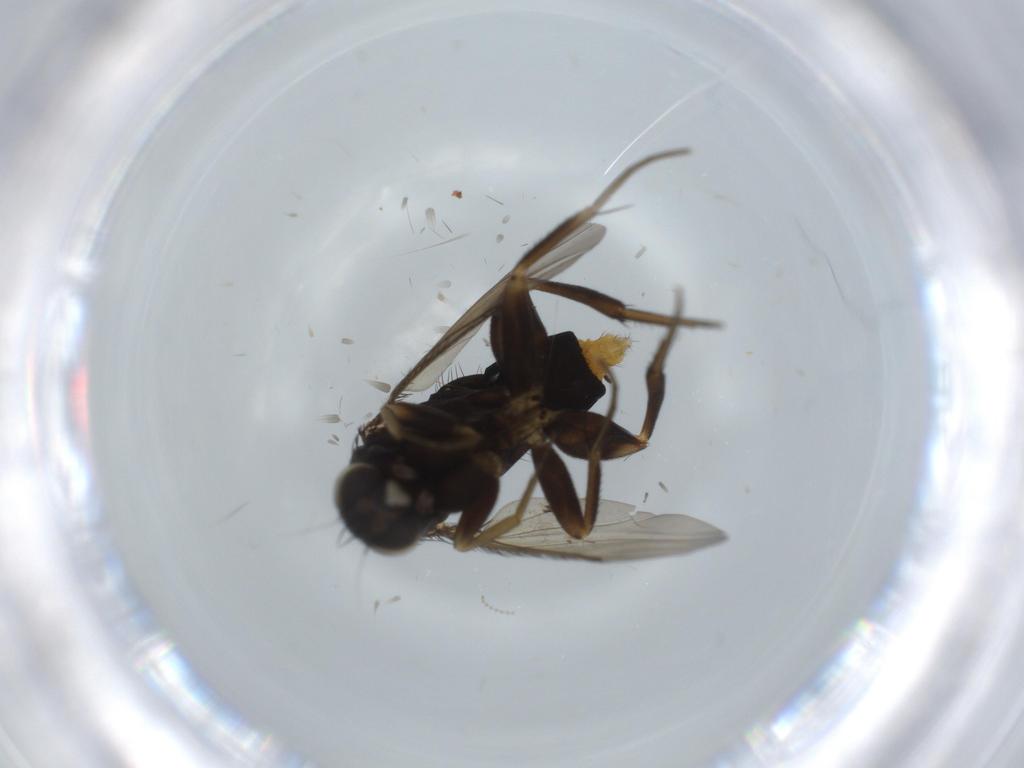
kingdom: Animalia
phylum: Arthropoda
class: Insecta
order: Diptera
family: Phoridae
